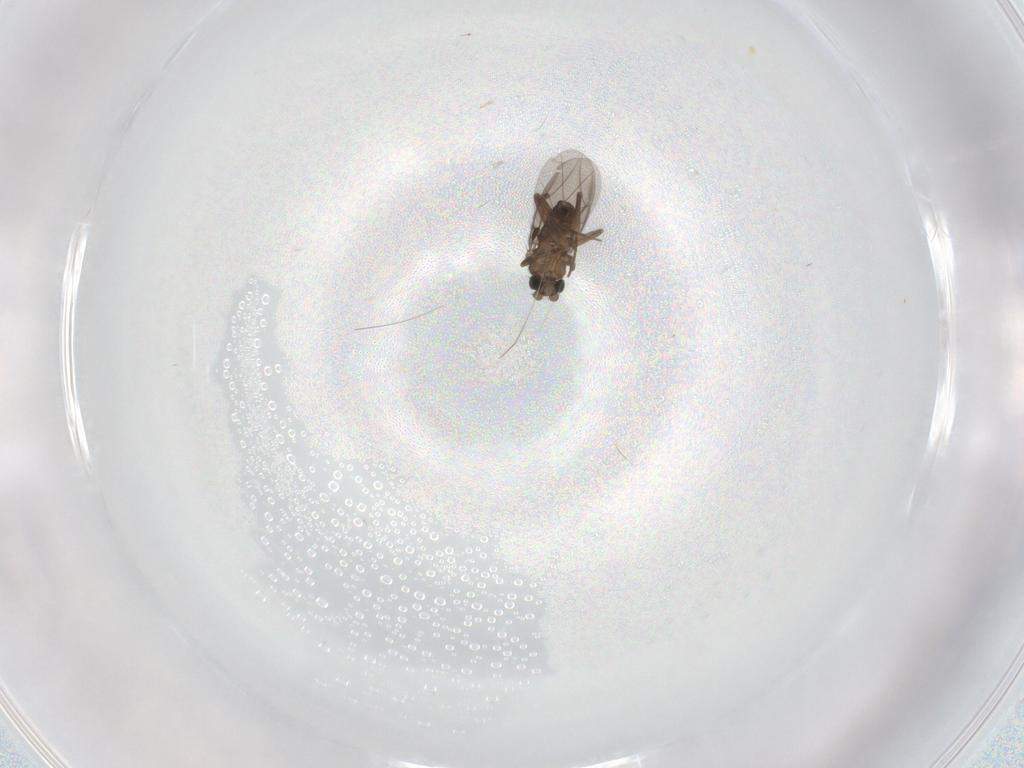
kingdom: Animalia
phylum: Arthropoda
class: Insecta
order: Diptera
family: Phoridae
